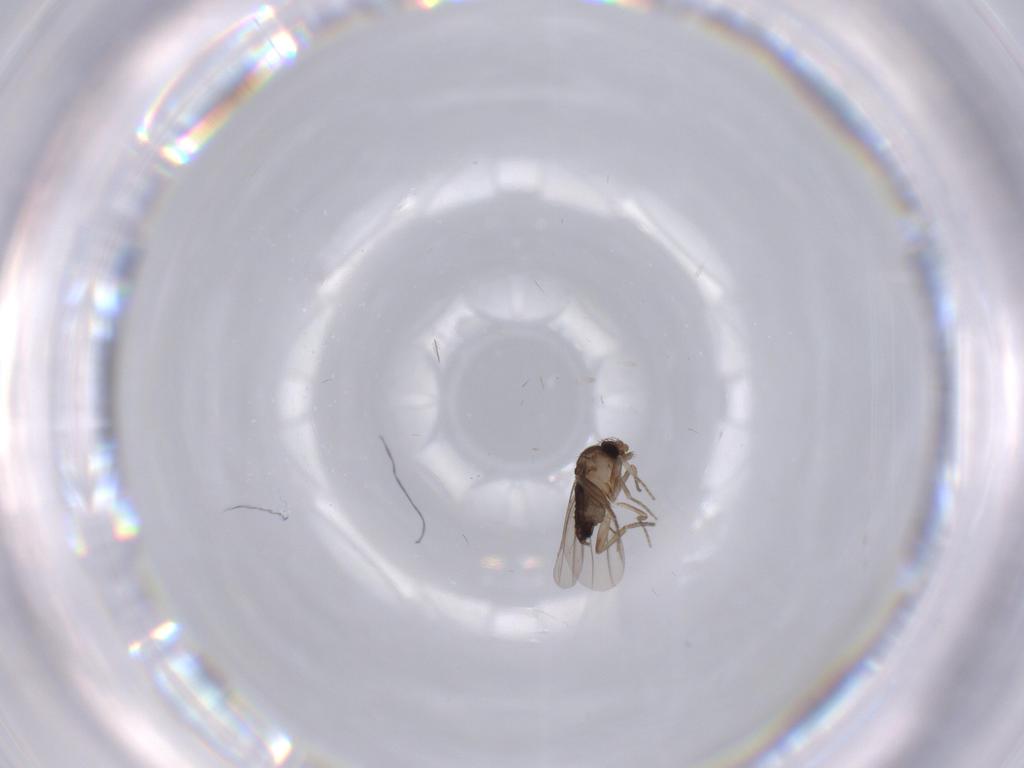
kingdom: Animalia
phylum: Arthropoda
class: Insecta
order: Diptera
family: Phoridae
